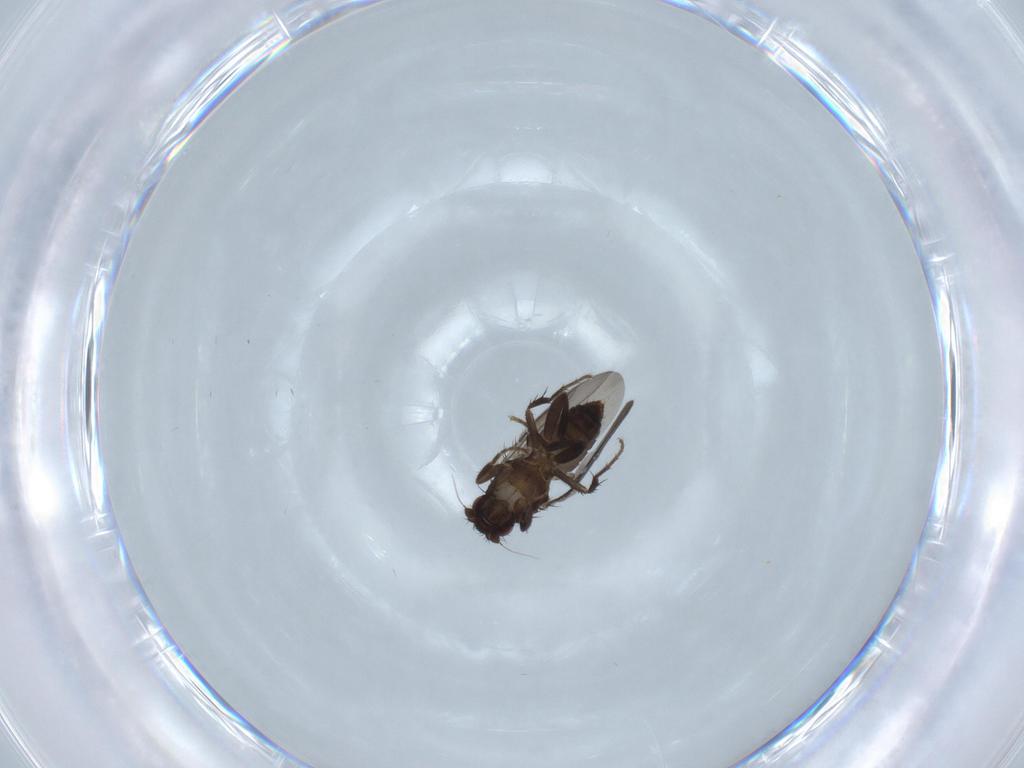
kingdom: Animalia
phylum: Arthropoda
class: Insecta
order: Diptera
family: Sphaeroceridae
